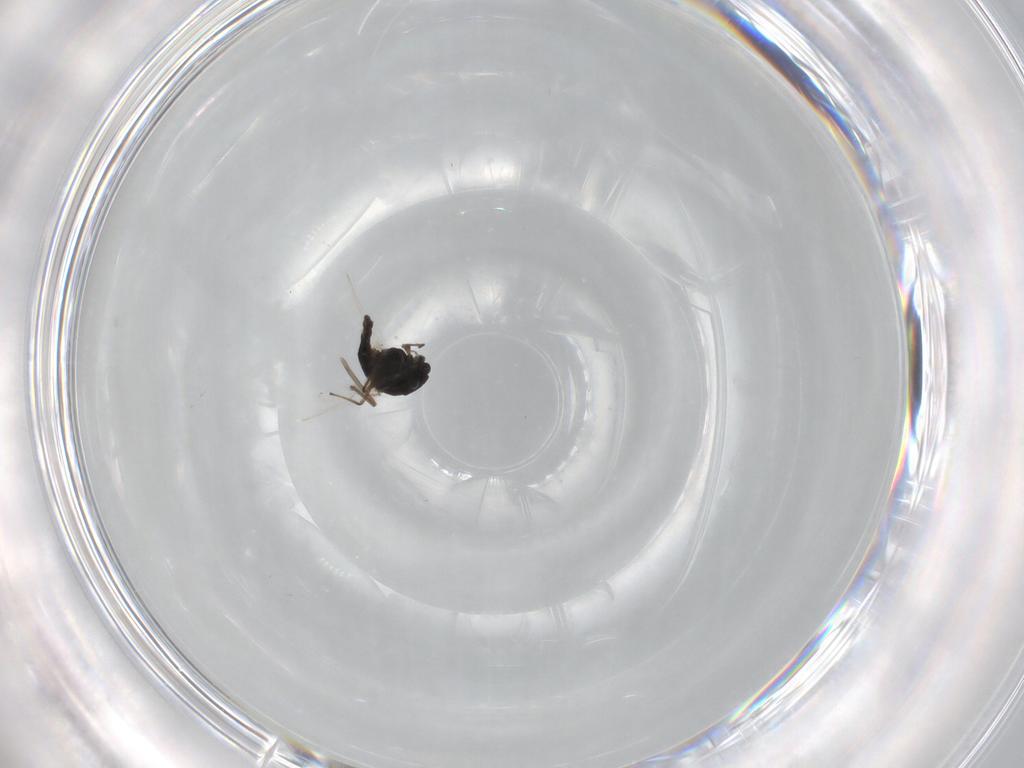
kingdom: Animalia
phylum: Arthropoda
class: Insecta
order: Diptera
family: Chironomidae
